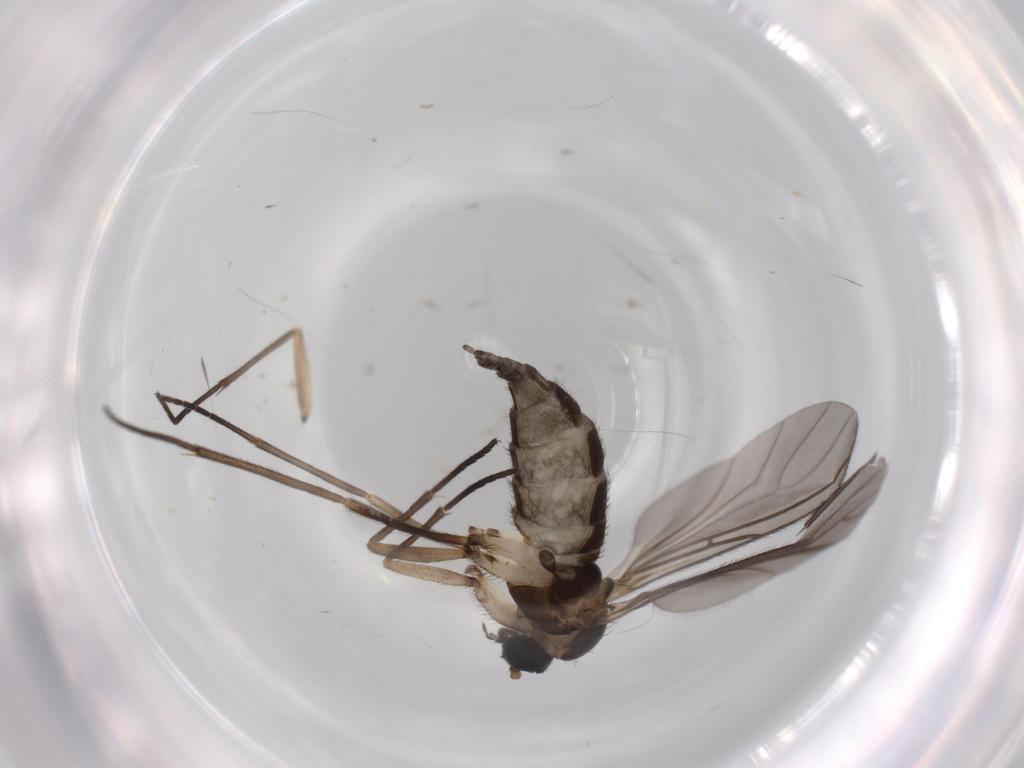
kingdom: Animalia
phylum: Arthropoda
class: Insecta
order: Diptera
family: Sciaridae
